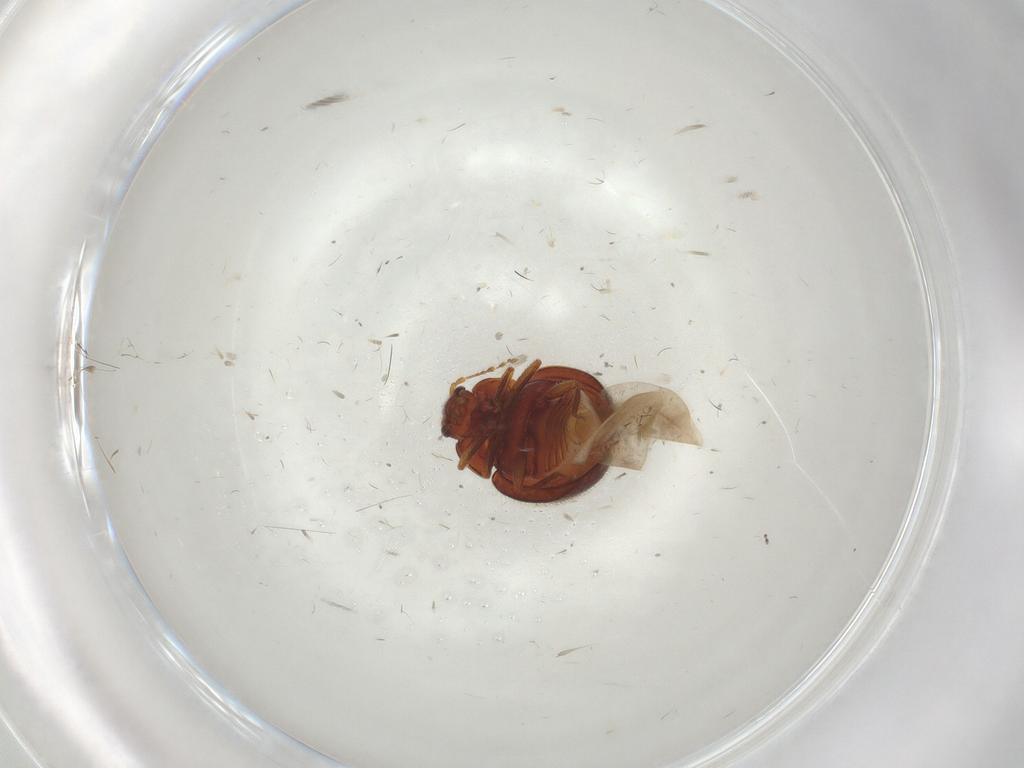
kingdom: Animalia
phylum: Arthropoda
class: Insecta
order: Coleoptera
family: Anamorphidae
